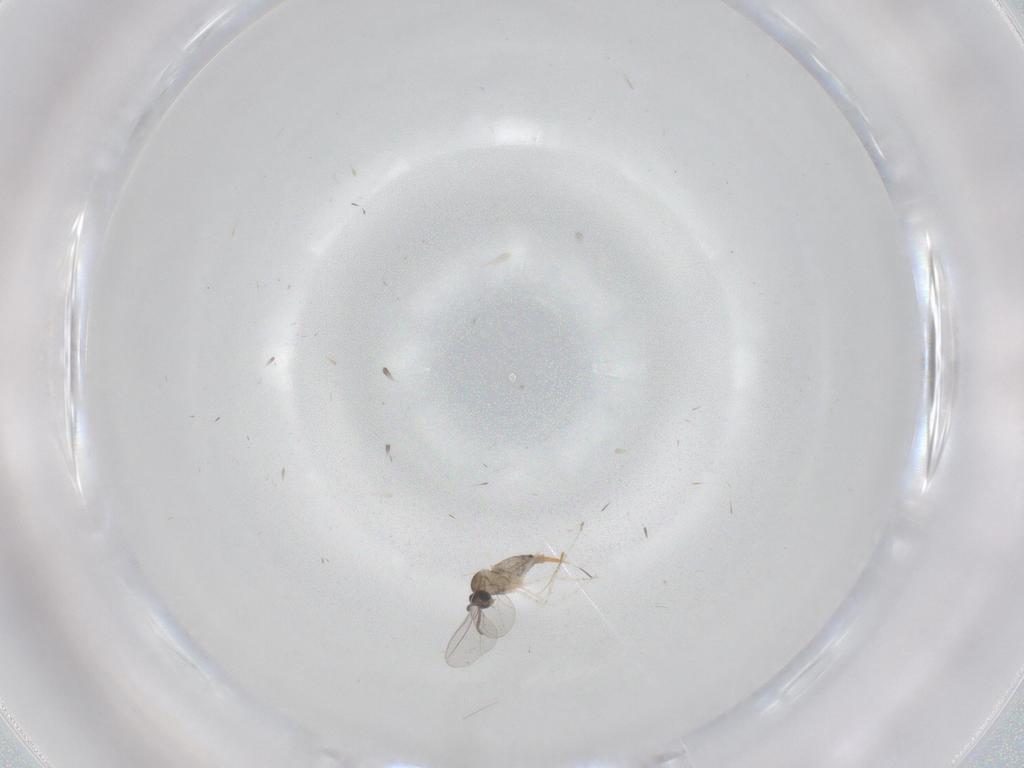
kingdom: Animalia
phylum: Arthropoda
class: Insecta
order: Diptera
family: Cecidomyiidae
